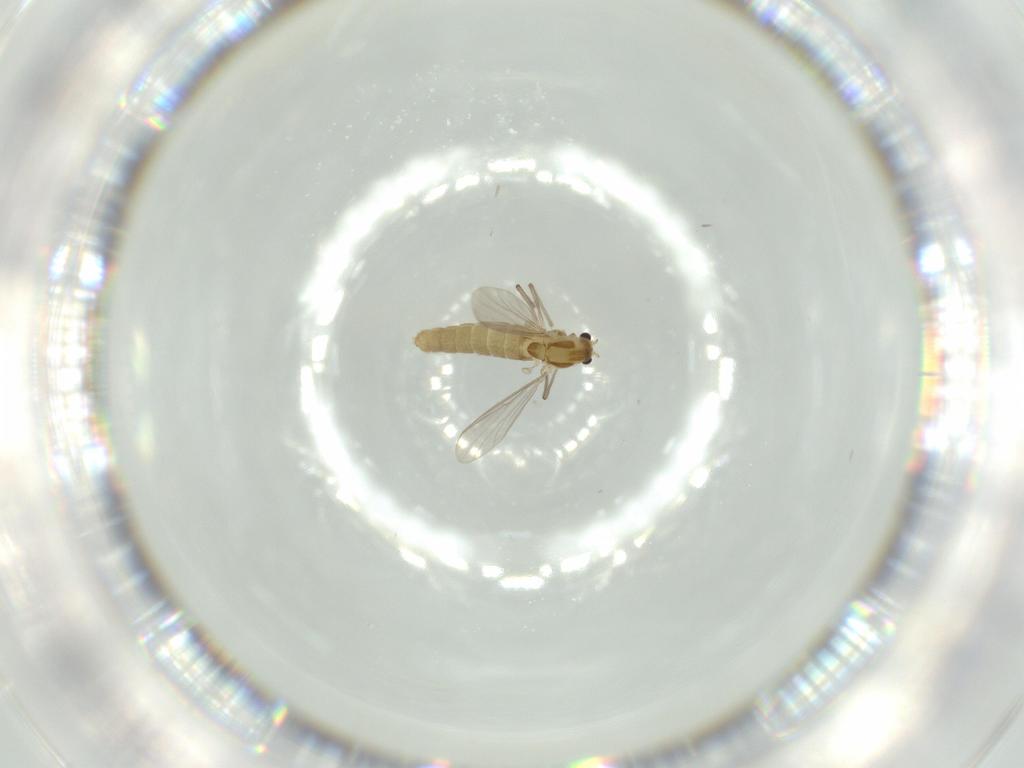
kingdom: Animalia
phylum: Arthropoda
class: Insecta
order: Diptera
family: Chironomidae
